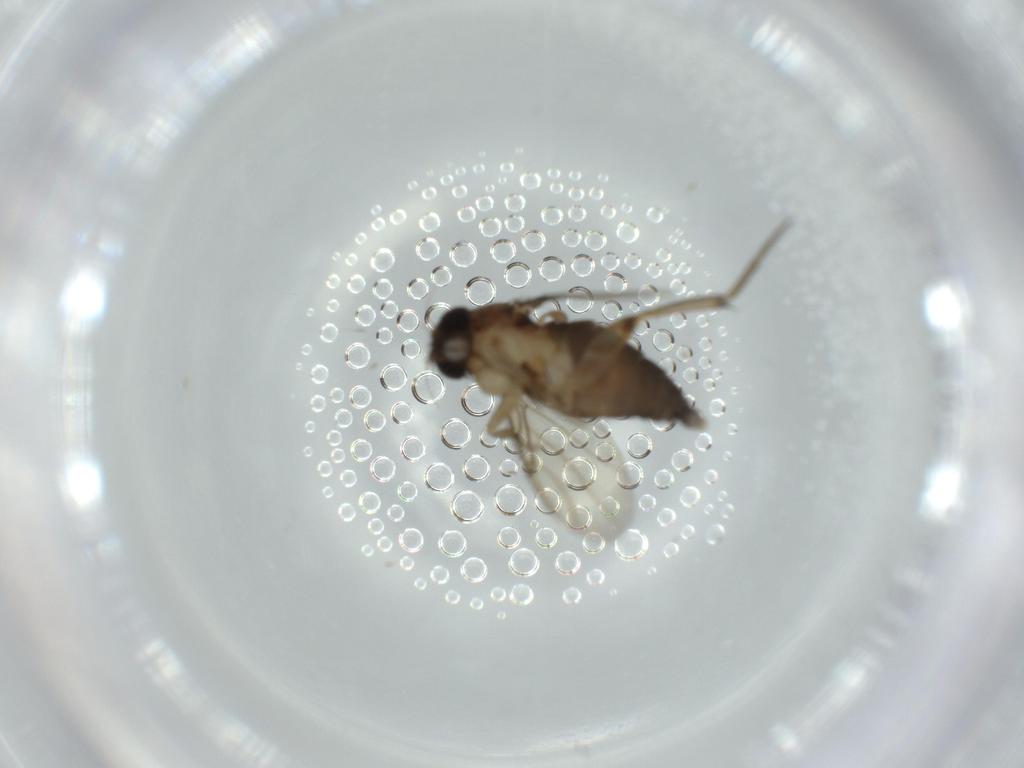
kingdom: Animalia
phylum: Arthropoda
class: Insecta
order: Diptera
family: Phoridae
